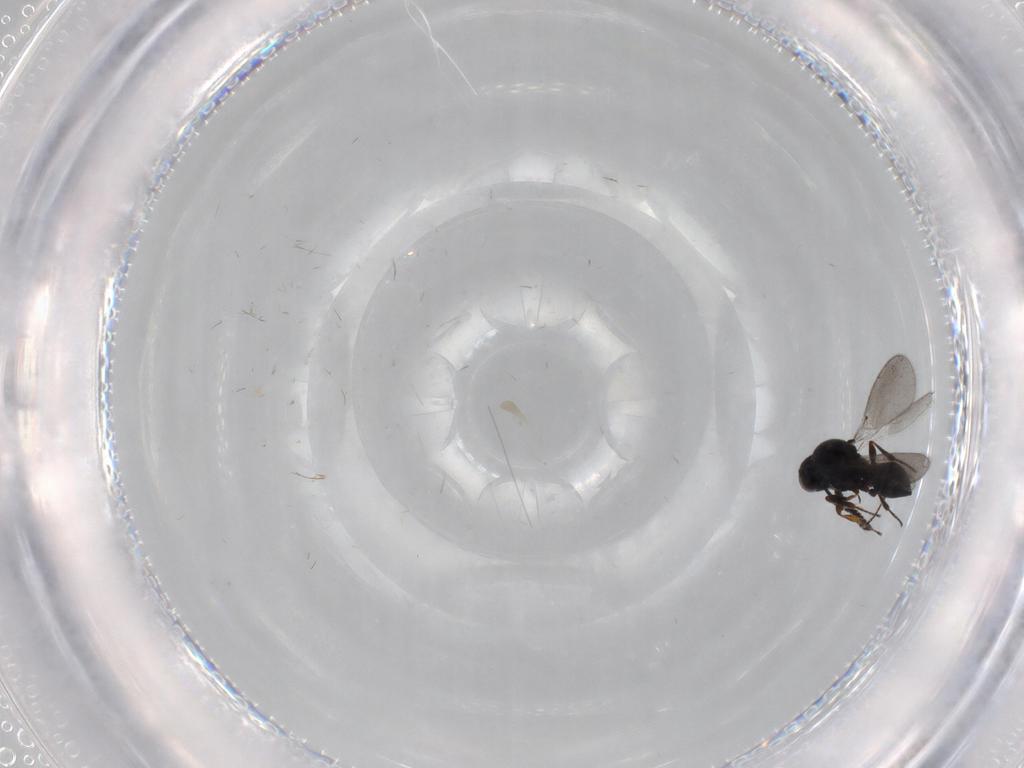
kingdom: Animalia
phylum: Arthropoda
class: Insecta
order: Hymenoptera
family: Platygastridae
